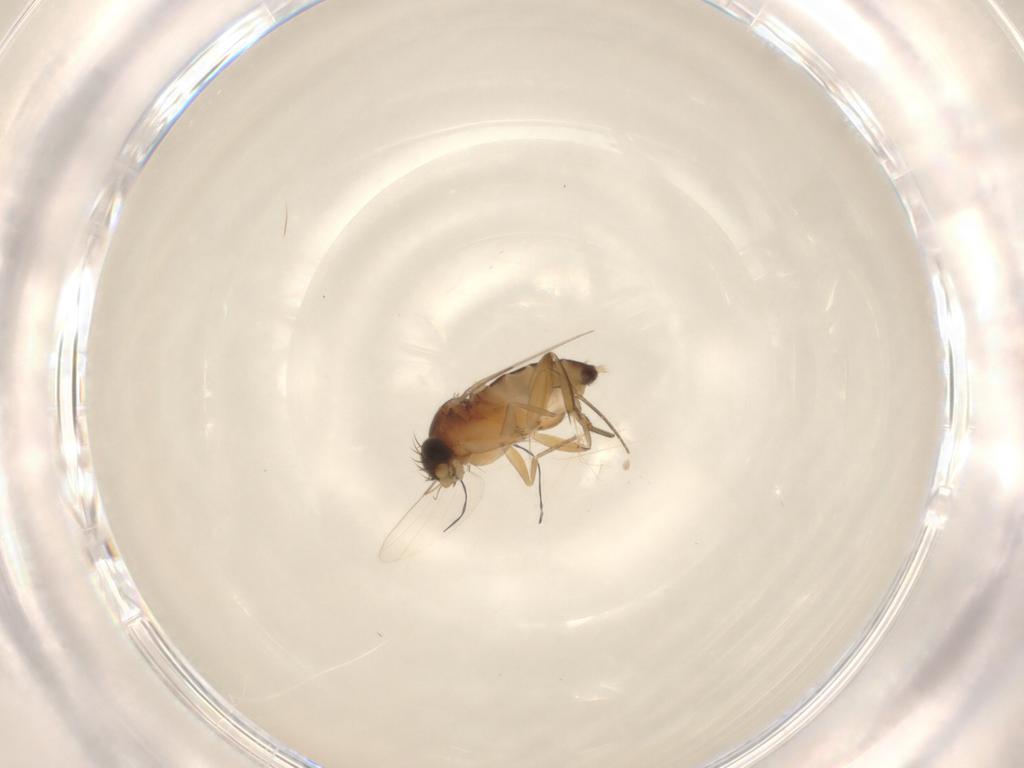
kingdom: Animalia
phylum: Arthropoda
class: Insecta
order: Diptera
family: Phoridae
